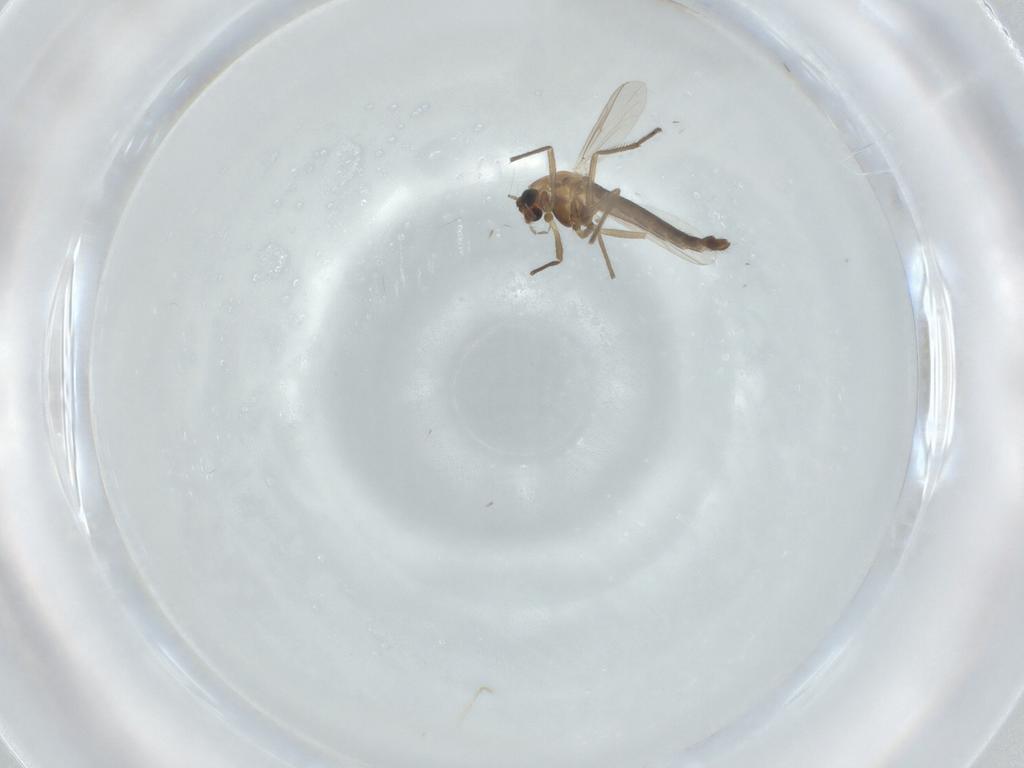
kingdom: Animalia
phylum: Arthropoda
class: Insecta
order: Diptera
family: Chironomidae
